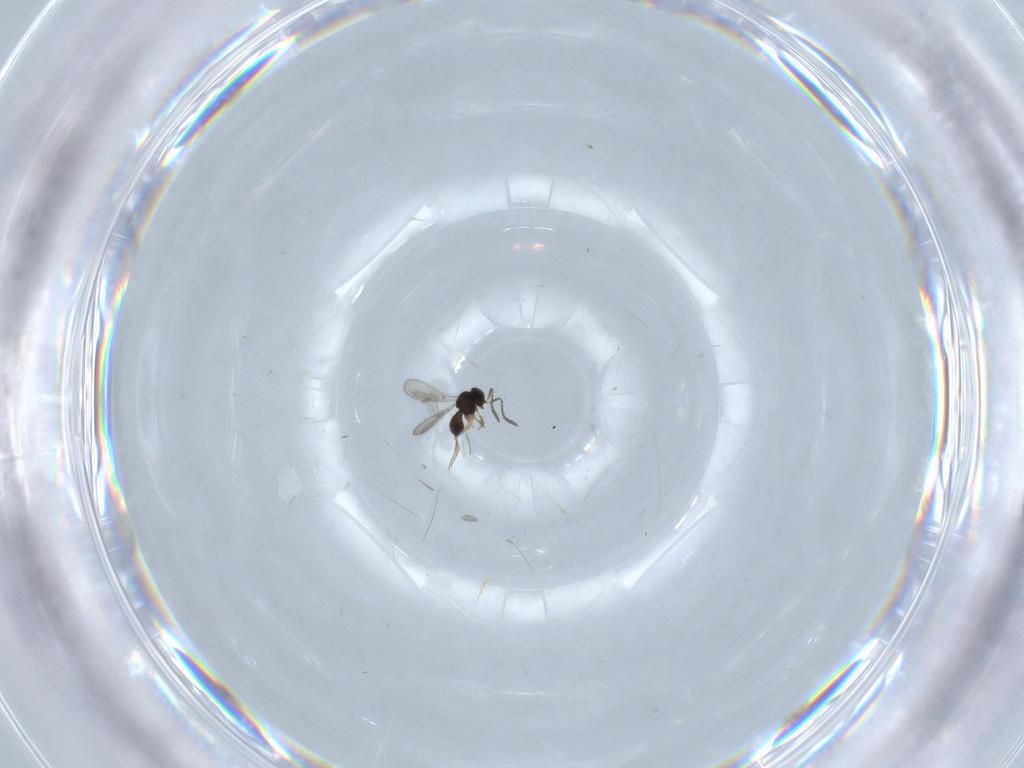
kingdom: Animalia
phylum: Arthropoda
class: Insecta
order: Hymenoptera
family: Scelionidae
